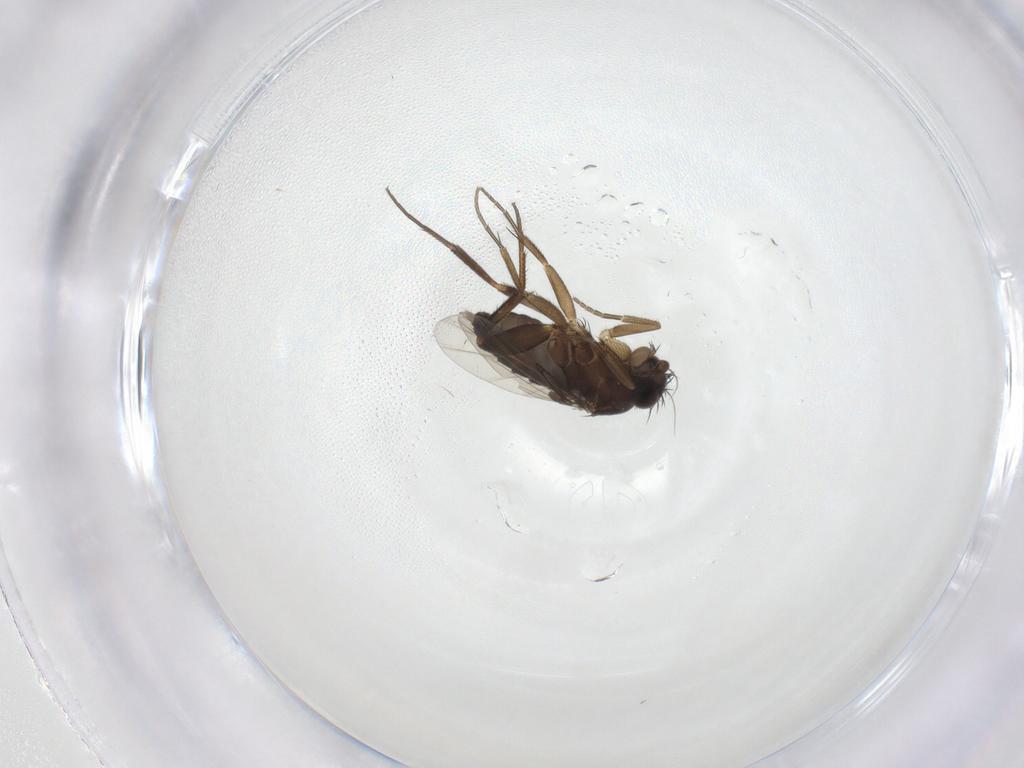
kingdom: Animalia
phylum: Arthropoda
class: Insecta
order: Diptera
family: Phoridae
